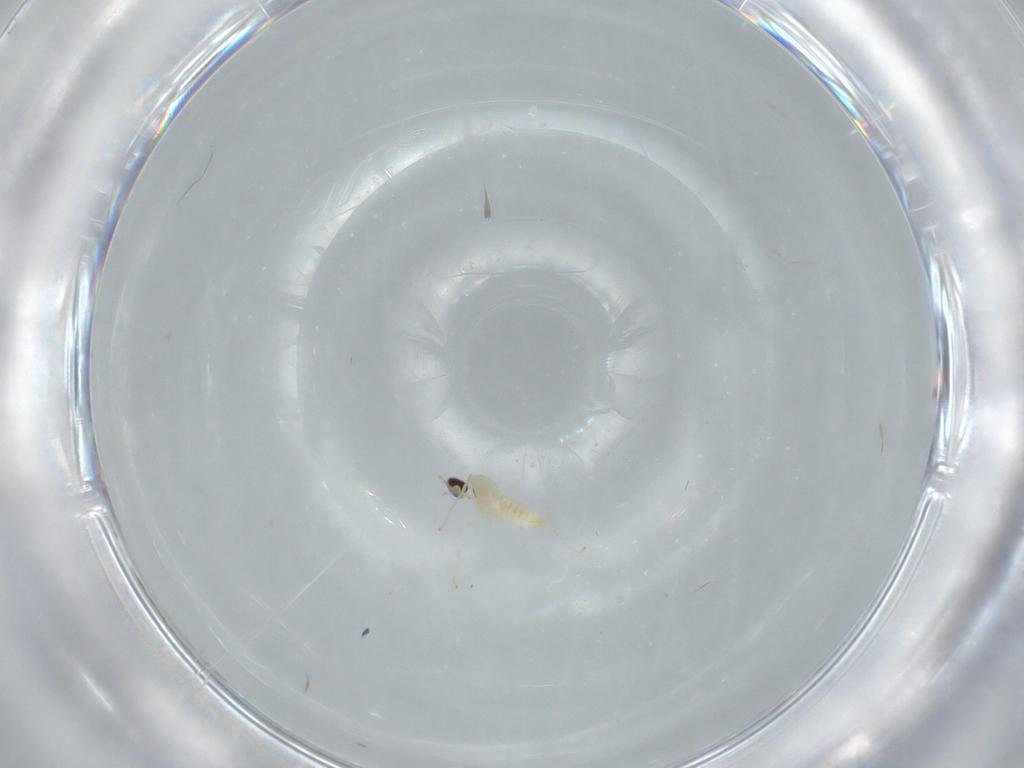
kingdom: Animalia
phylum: Arthropoda
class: Insecta
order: Diptera
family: Cecidomyiidae
